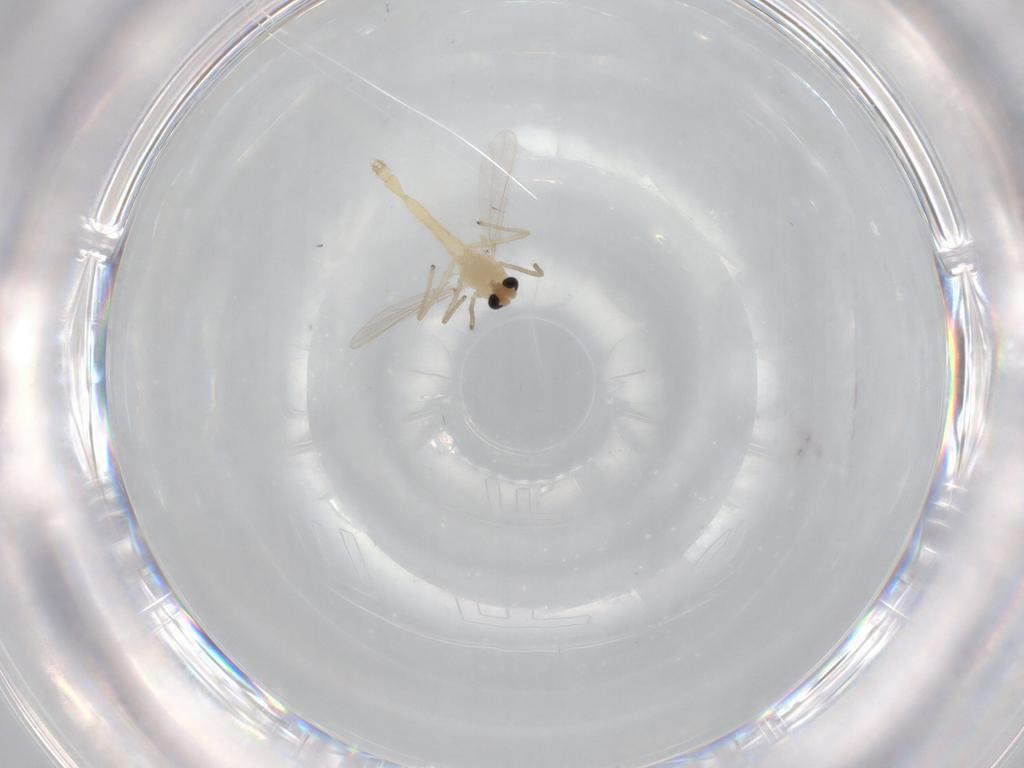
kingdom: Animalia
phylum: Arthropoda
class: Insecta
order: Diptera
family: Chironomidae
